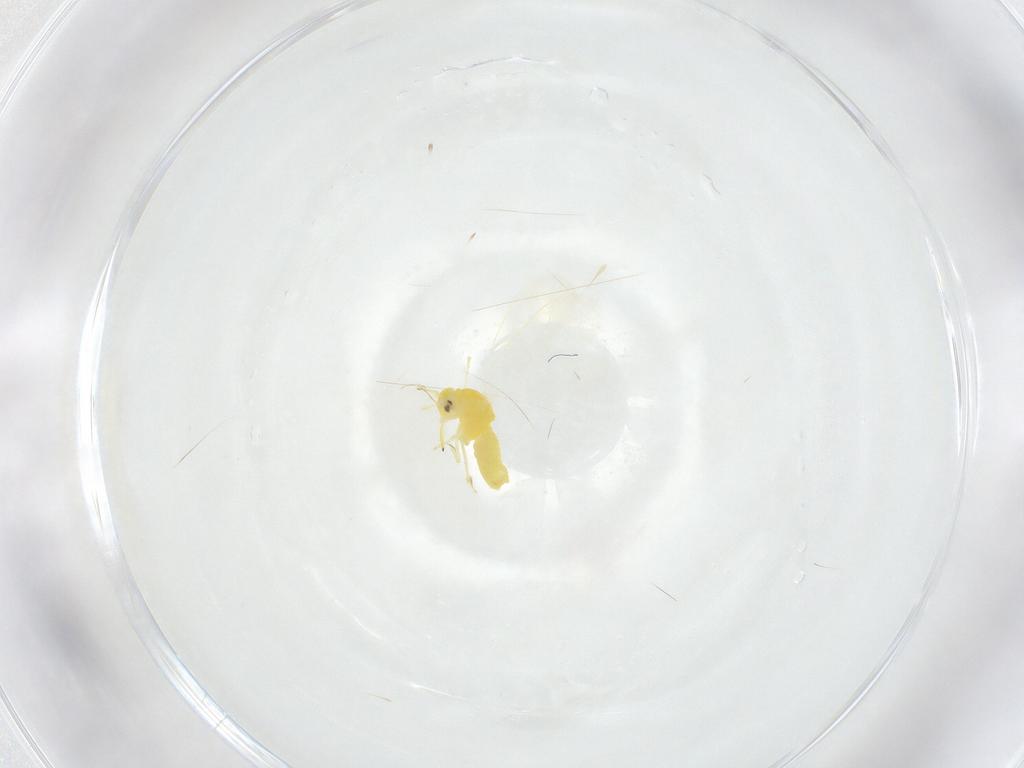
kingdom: Animalia
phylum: Arthropoda
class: Insecta
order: Hemiptera
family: Aleyrodidae
